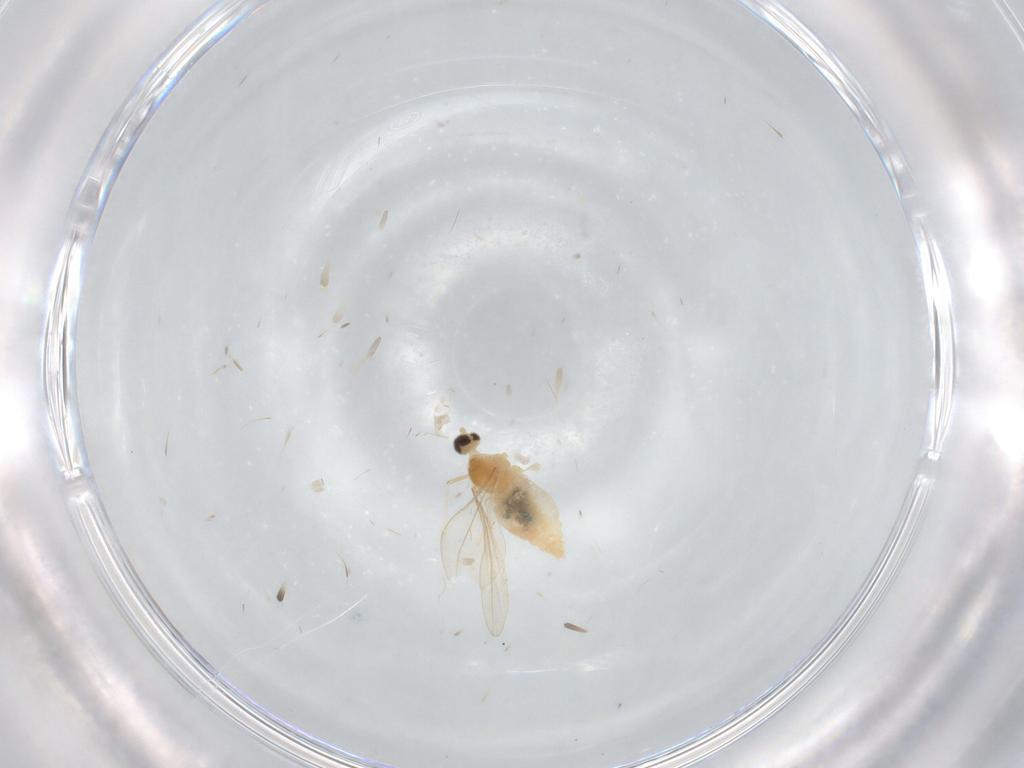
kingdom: Animalia
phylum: Arthropoda
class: Insecta
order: Diptera
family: Cecidomyiidae
